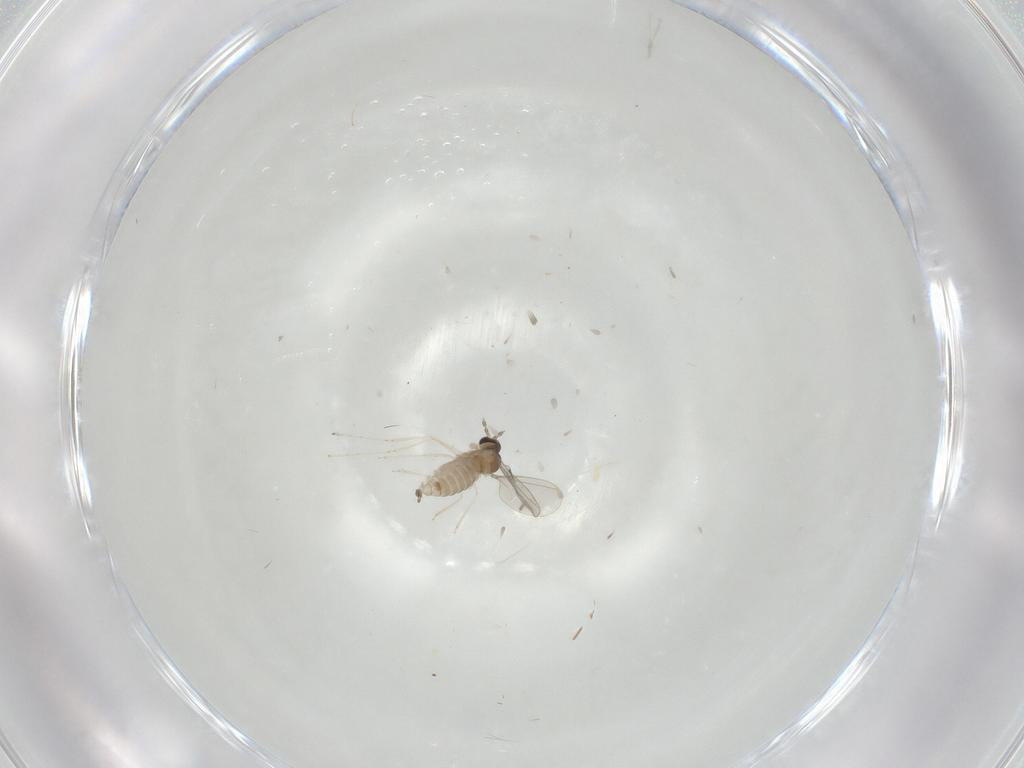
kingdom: Animalia
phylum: Arthropoda
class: Insecta
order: Diptera
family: Cecidomyiidae
